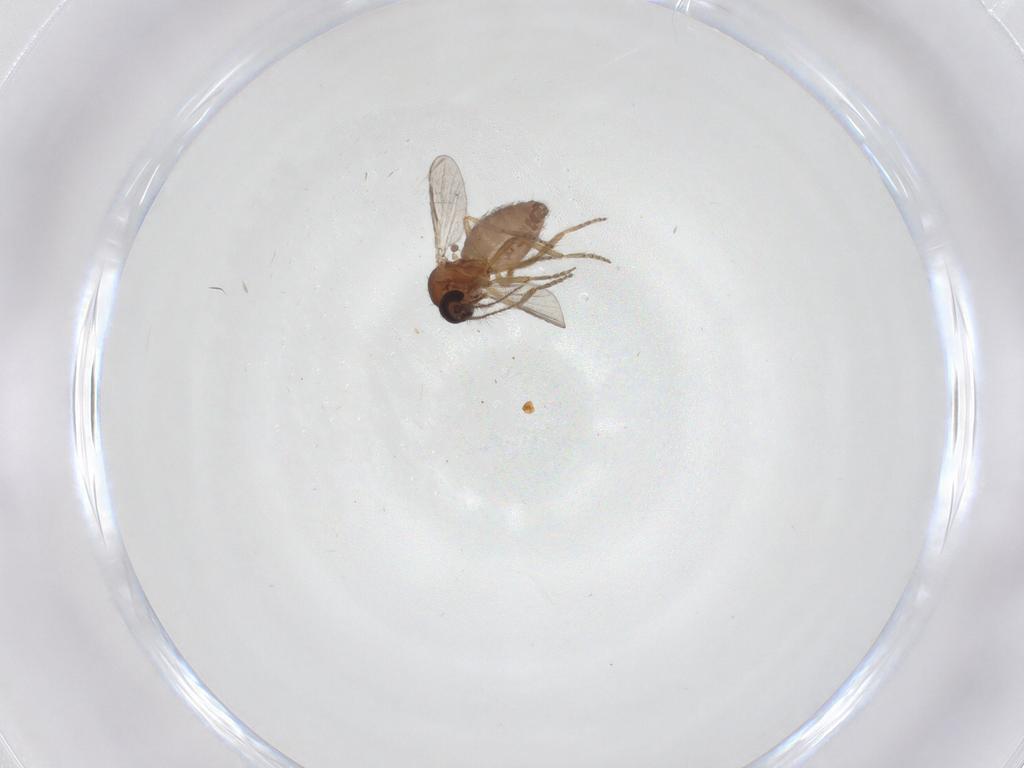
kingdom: Animalia
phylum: Arthropoda
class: Insecta
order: Diptera
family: Ceratopogonidae
